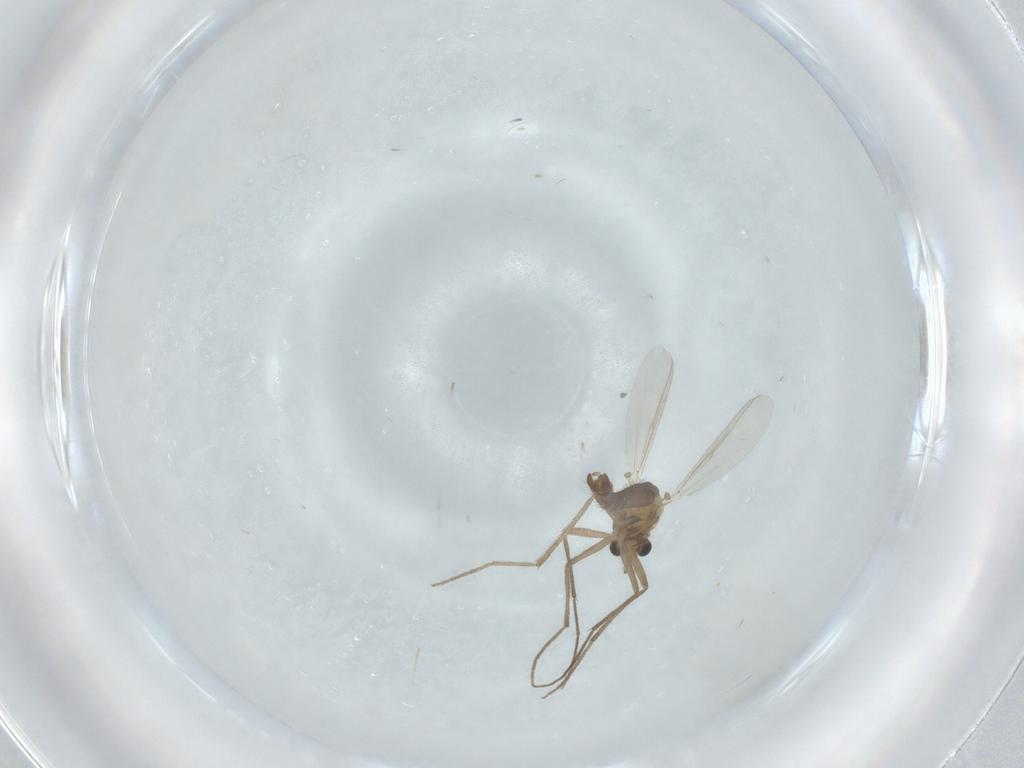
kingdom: Animalia
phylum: Arthropoda
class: Insecta
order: Diptera
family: Chironomidae
